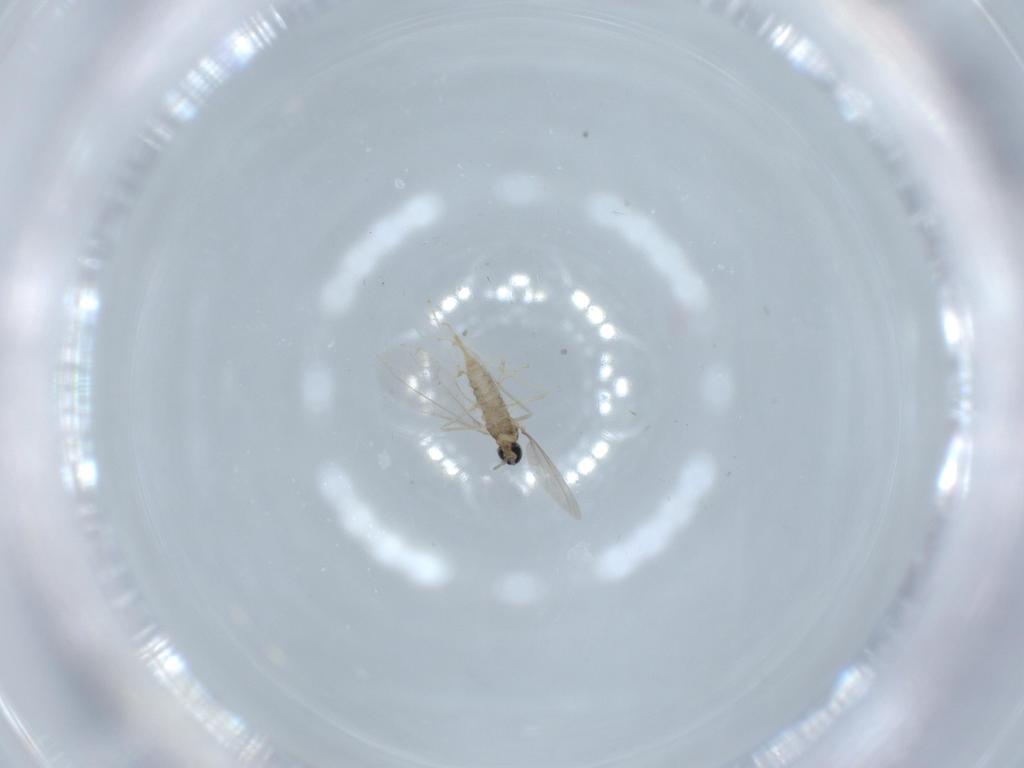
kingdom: Animalia
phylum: Arthropoda
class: Insecta
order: Diptera
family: Cecidomyiidae
